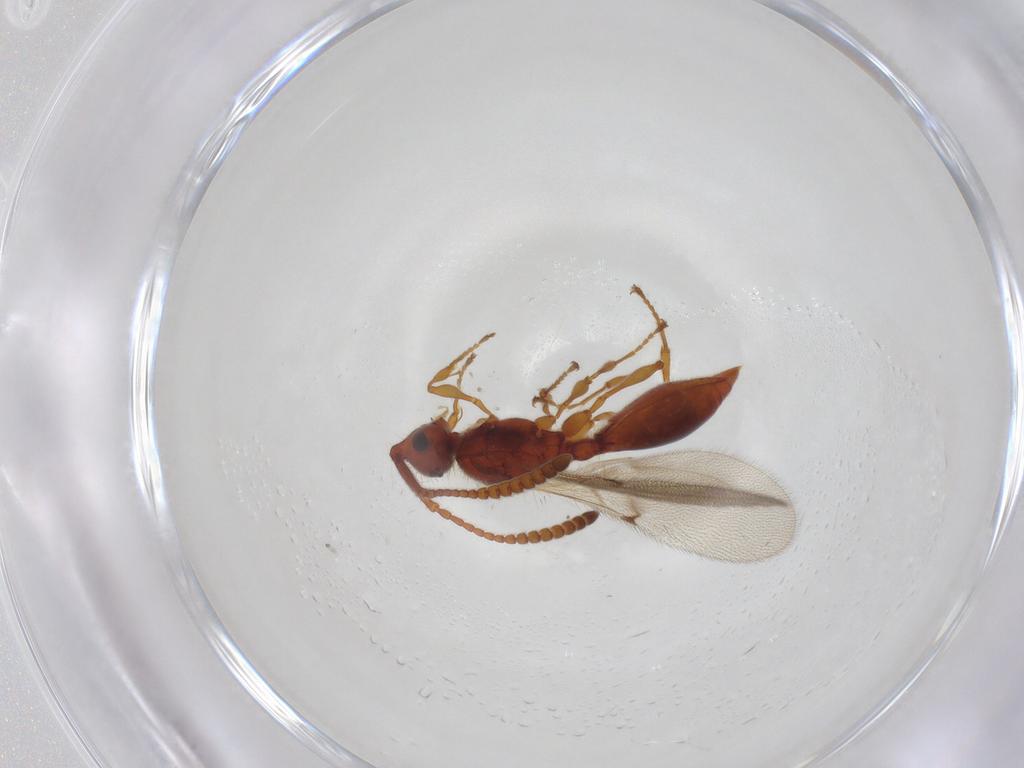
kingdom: Animalia
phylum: Arthropoda
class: Insecta
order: Hymenoptera
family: Diapriidae
